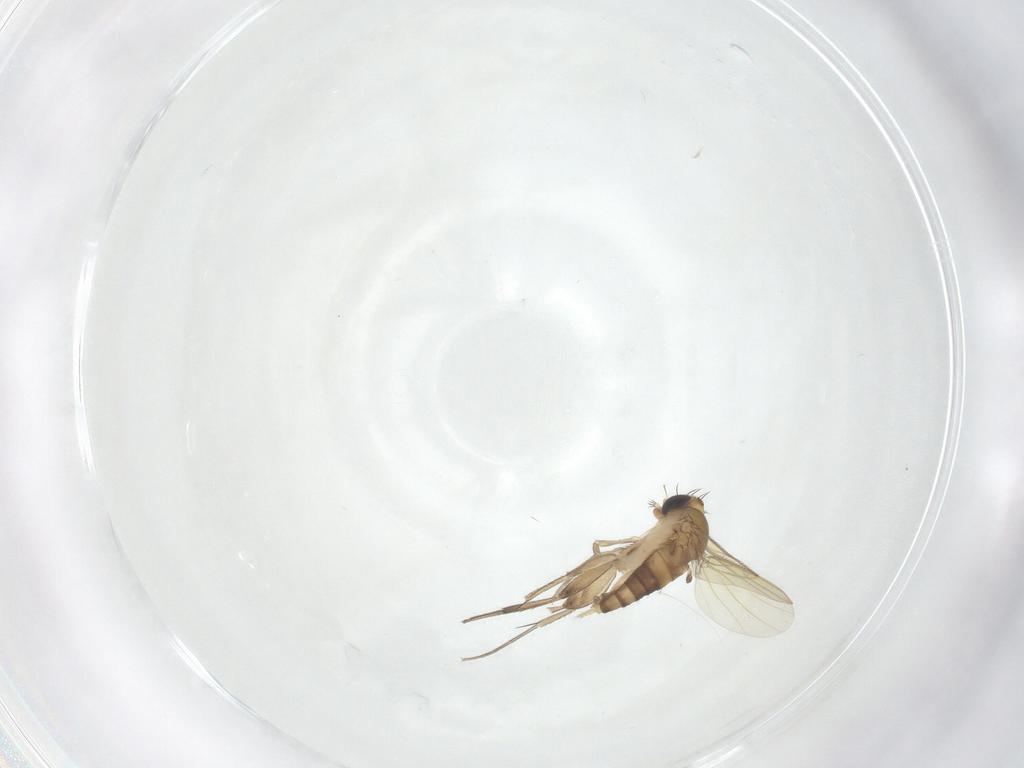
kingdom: Animalia
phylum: Arthropoda
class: Insecta
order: Diptera
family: Phoridae
